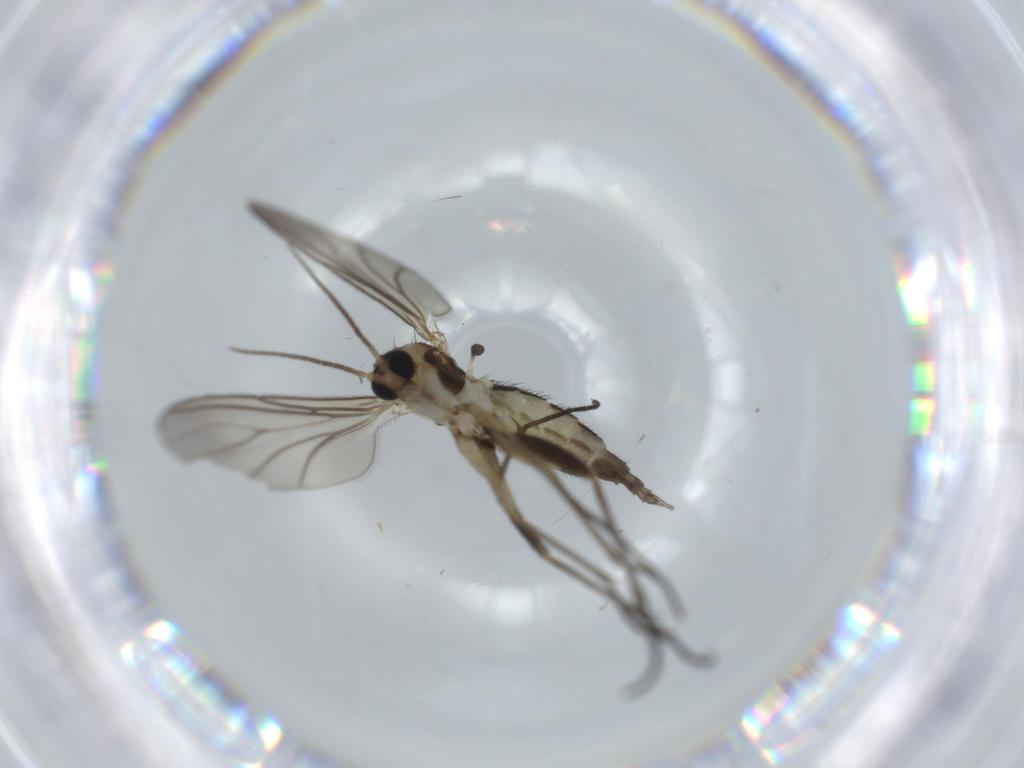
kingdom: Animalia
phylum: Arthropoda
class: Insecta
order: Diptera
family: Sciaridae
